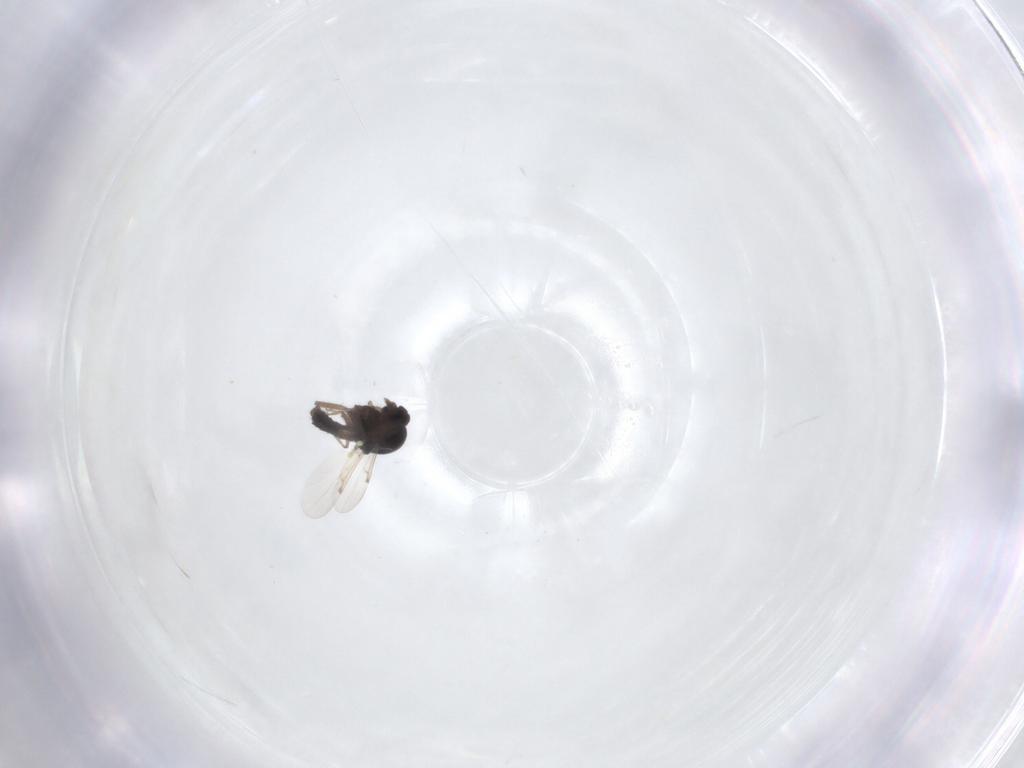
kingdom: Animalia
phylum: Arthropoda
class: Insecta
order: Diptera
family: Ceratopogonidae
